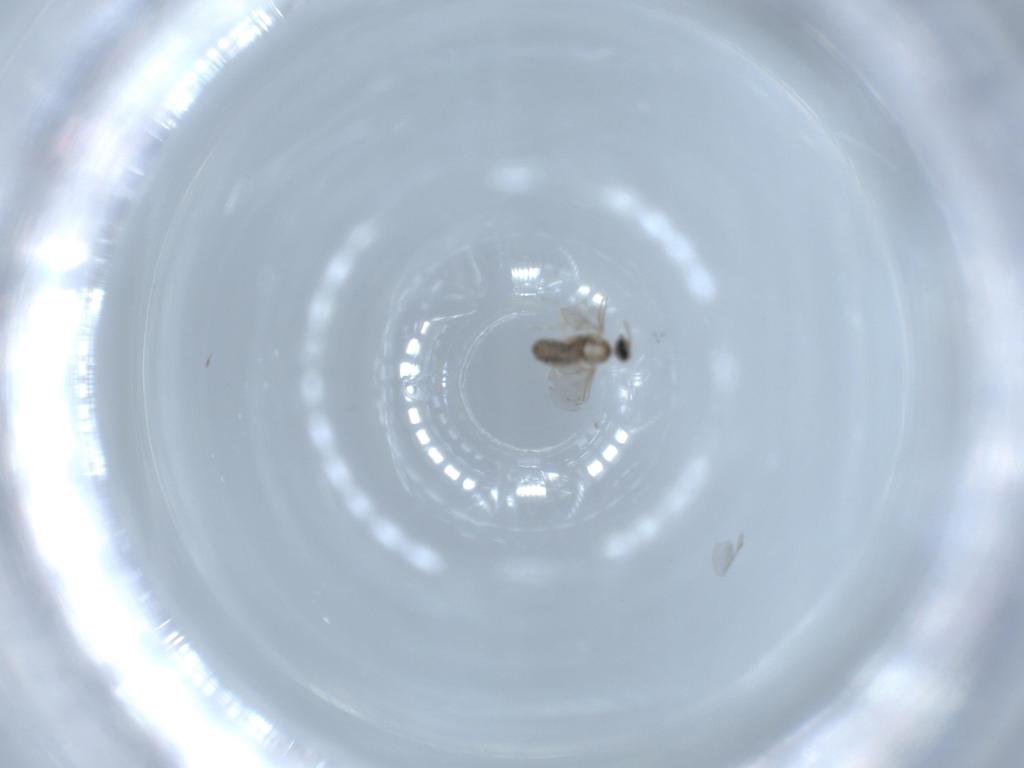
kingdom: Animalia
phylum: Arthropoda
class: Insecta
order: Diptera
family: Cecidomyiidae
